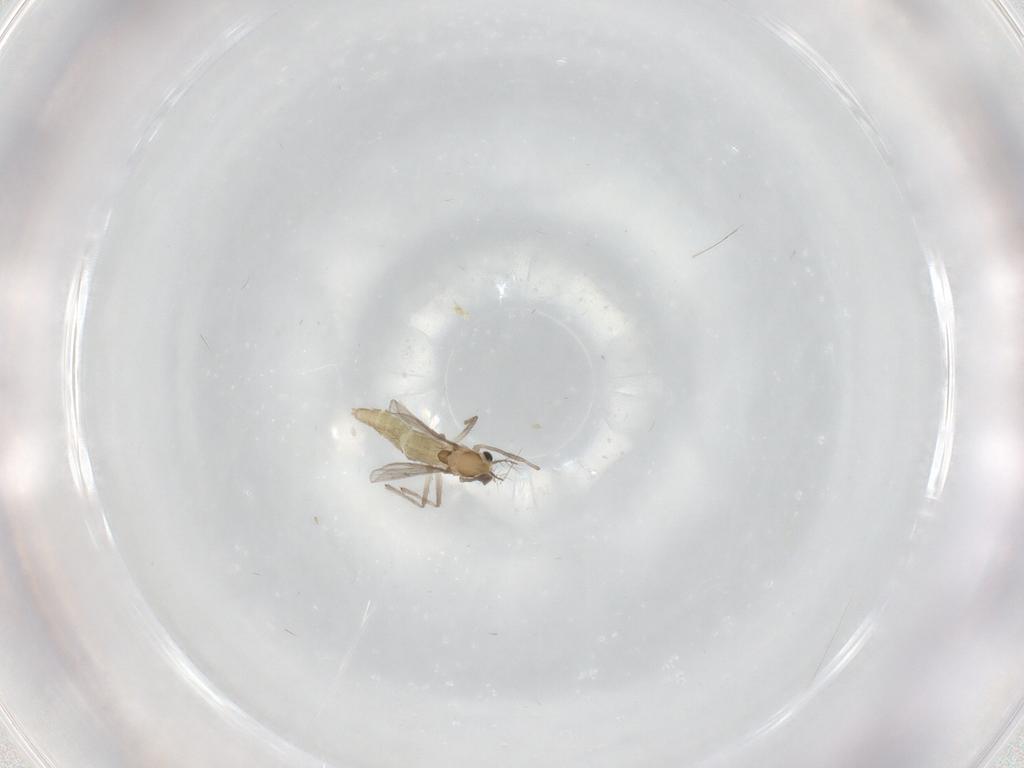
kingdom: Animalia
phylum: Arthropoda
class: Insecta
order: Diptera
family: Chironomidae
